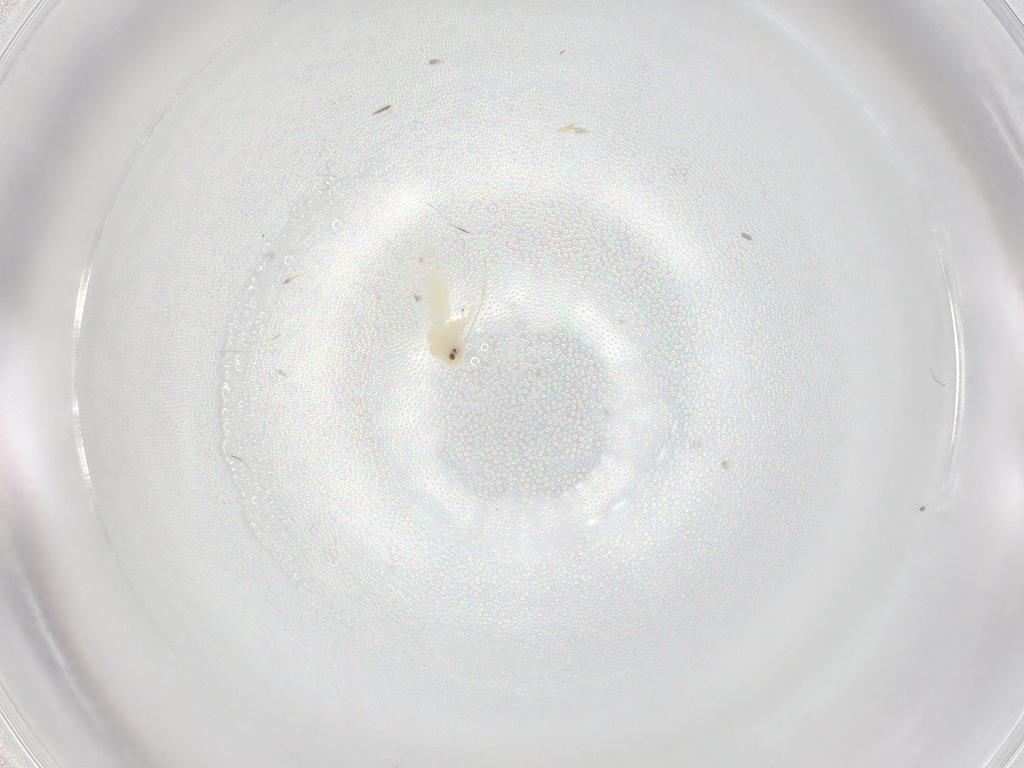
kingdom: Animalia
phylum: Arthropoda
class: Insecta
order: Hemiptera
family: Aleyrodidae
